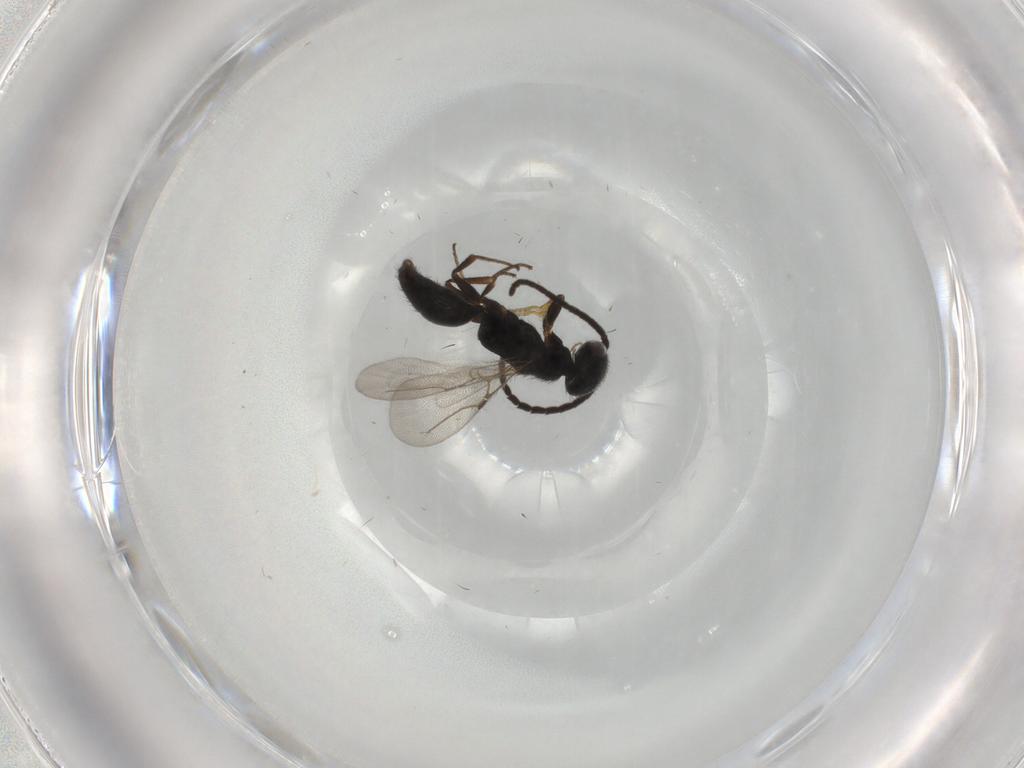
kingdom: Animalia
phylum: Arthropoda
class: Insecta
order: Hymenoptera
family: Bethylidae
